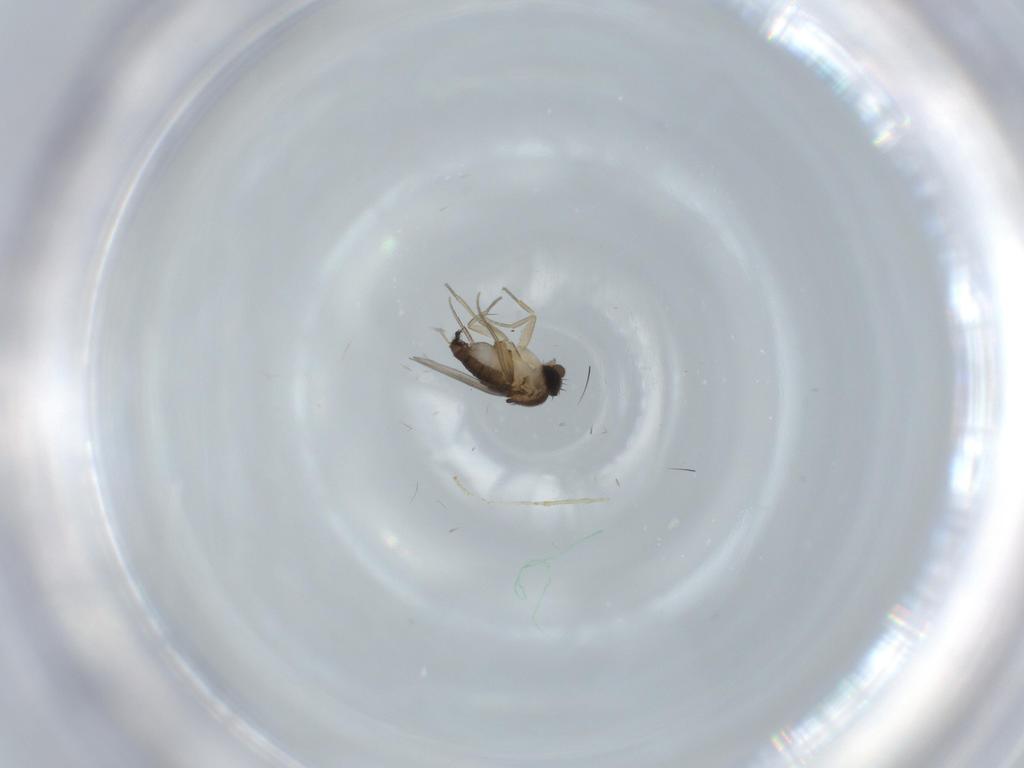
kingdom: Animalia
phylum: Arthropoda
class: Insecta
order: Diptera
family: Phoridae
